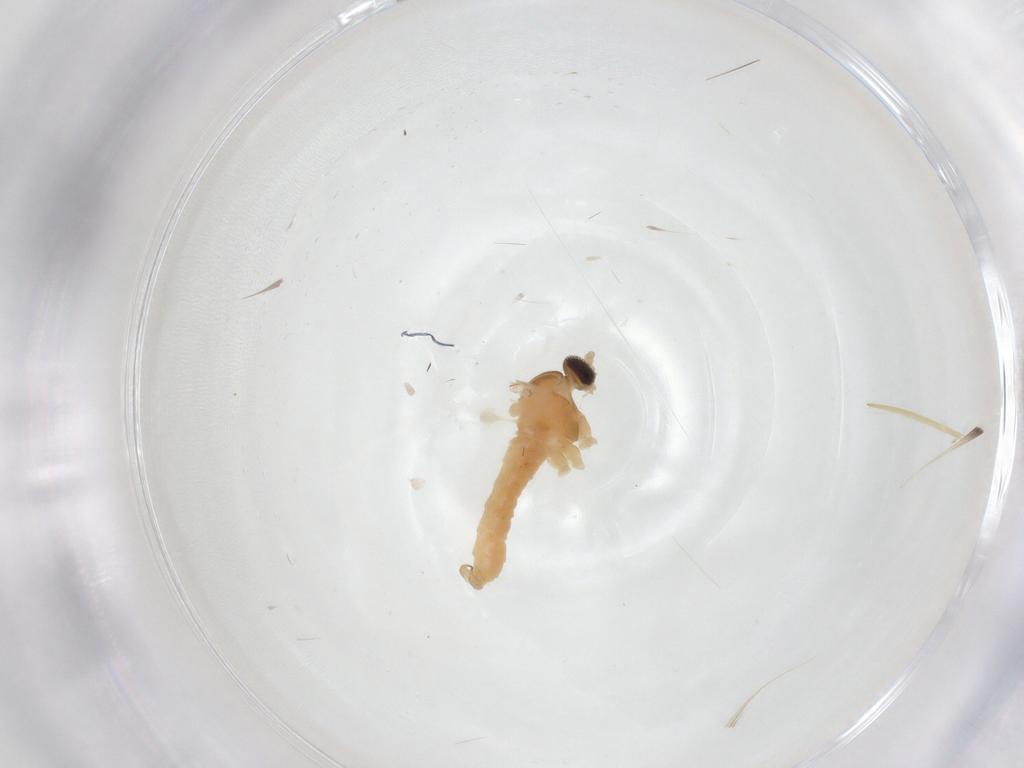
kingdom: Animalia
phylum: Arthropoda
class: Insecta
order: Diptera
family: Cecidomyiidae
